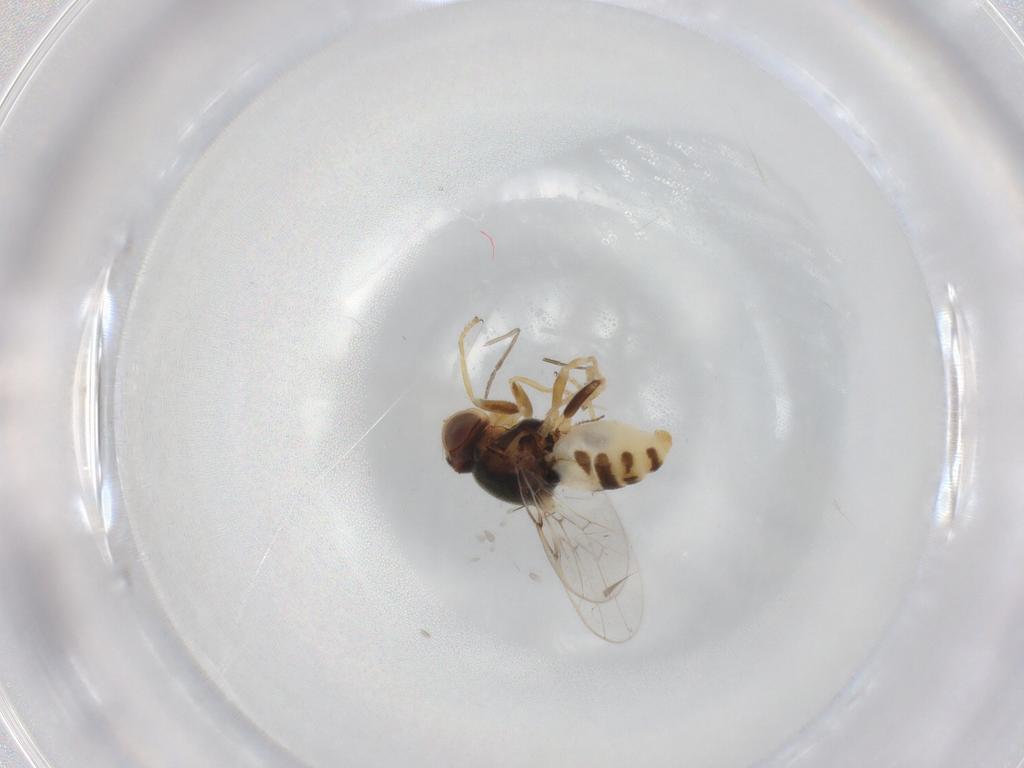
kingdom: Animalia
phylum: Arthropoda
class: Insecta
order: Diptera
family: Chloropidae
